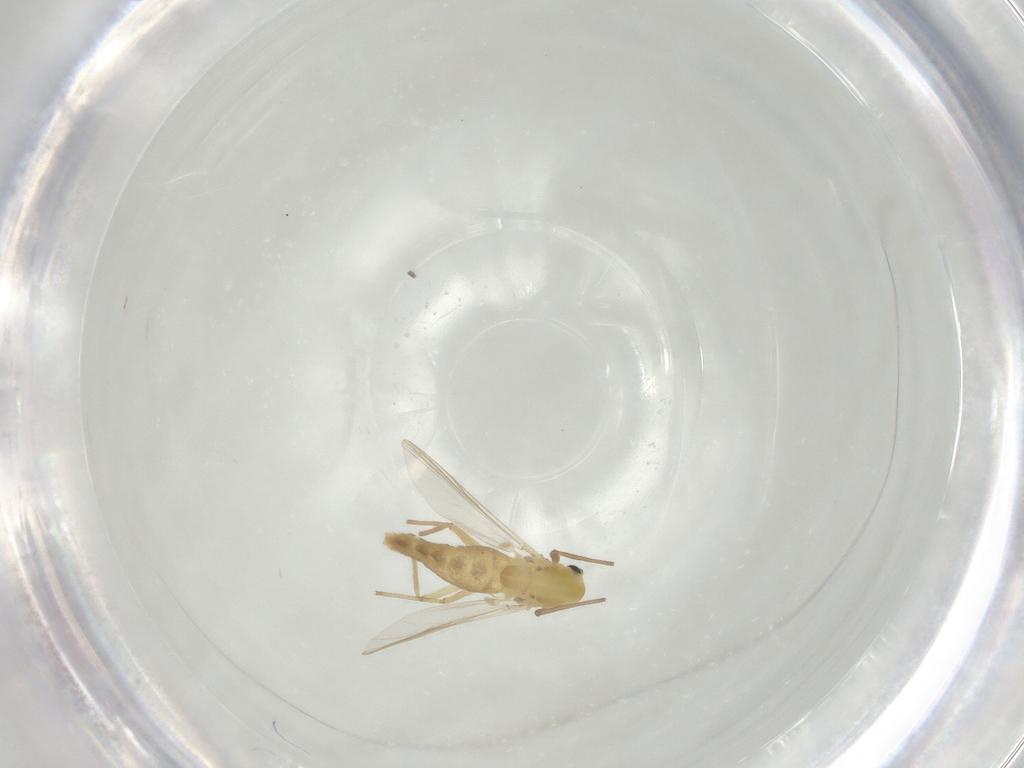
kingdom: Animalia
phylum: Arthropoda
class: Insecta
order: Diptera
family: Chironomidae
